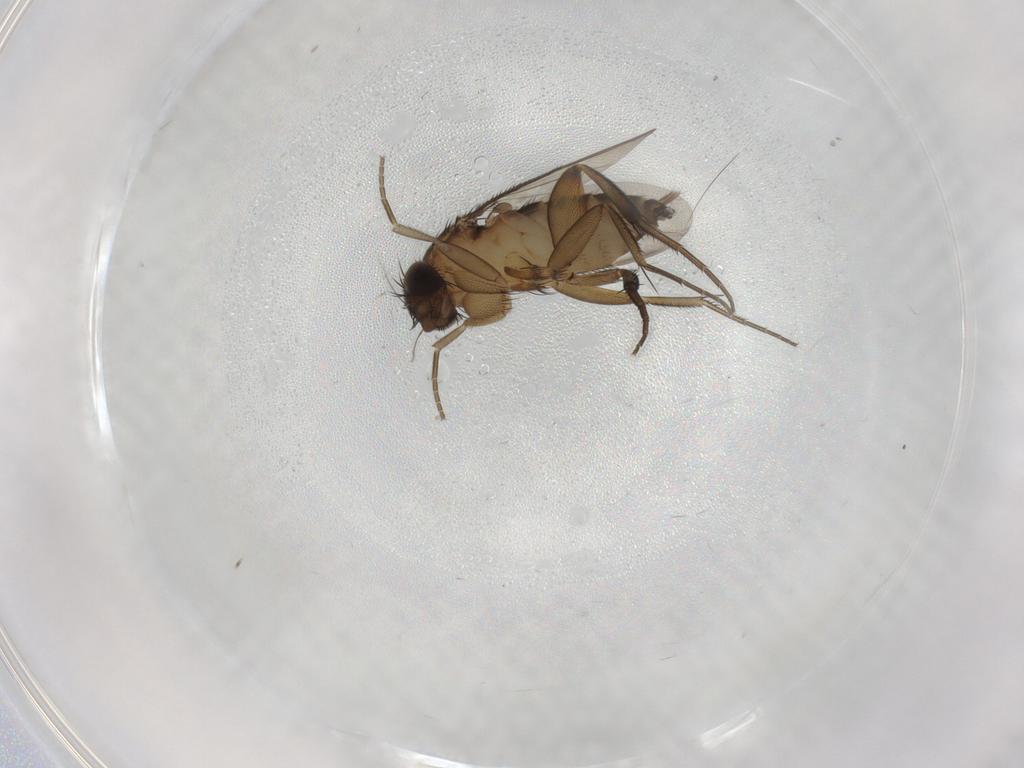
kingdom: Animalia
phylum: Arthropoda
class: Insecta
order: Diptera
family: Phoridae
